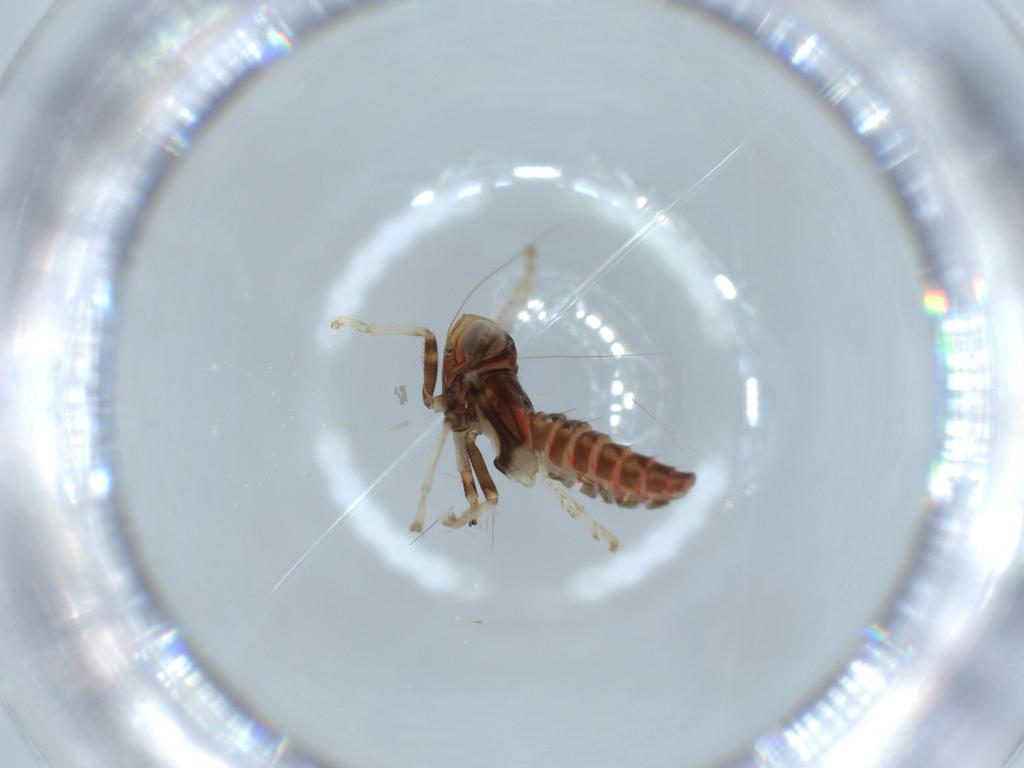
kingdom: Animalia
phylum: Arthropoda
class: Insecta
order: Hemiptera
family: Cicadellidae
